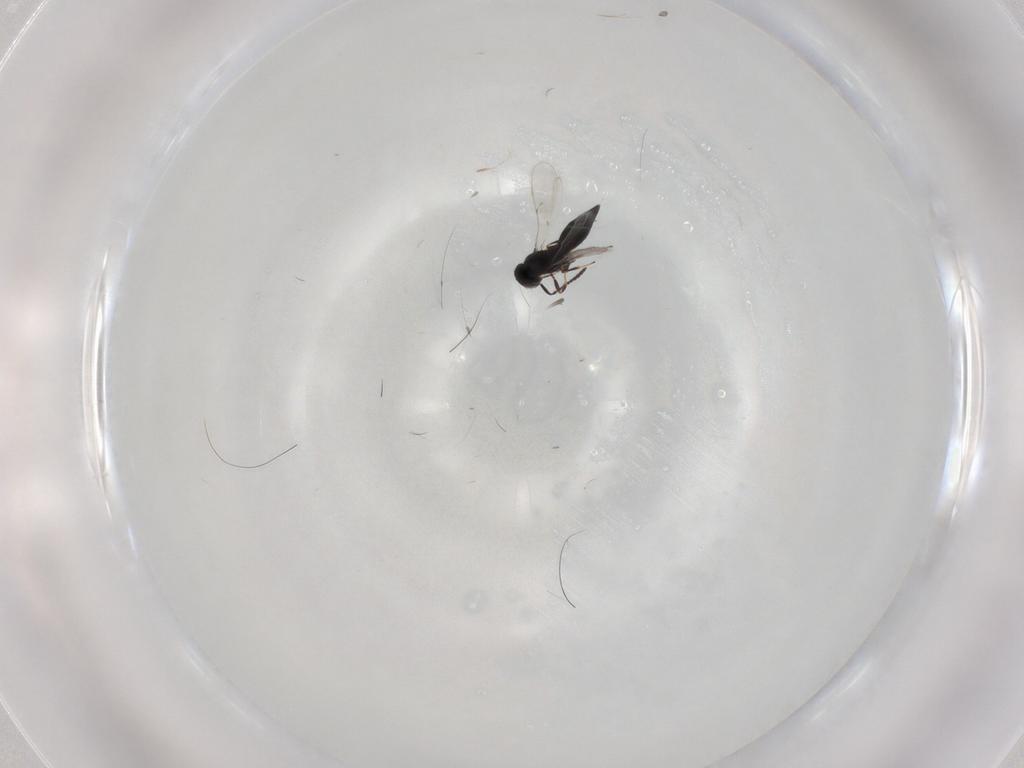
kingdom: Animalia
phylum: Arthropoda
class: Insecta
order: Hymenoptera
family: Scelionidae
